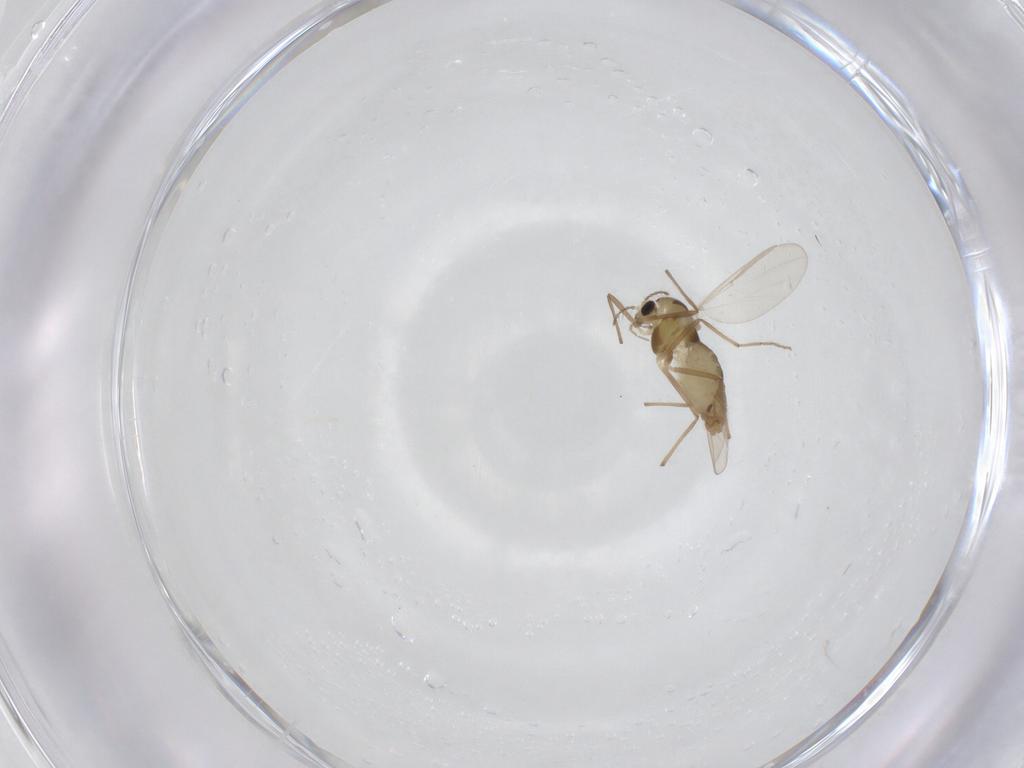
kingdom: Animalia
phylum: Arthropoda
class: Insecta
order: Diptera
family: Chironomidae
